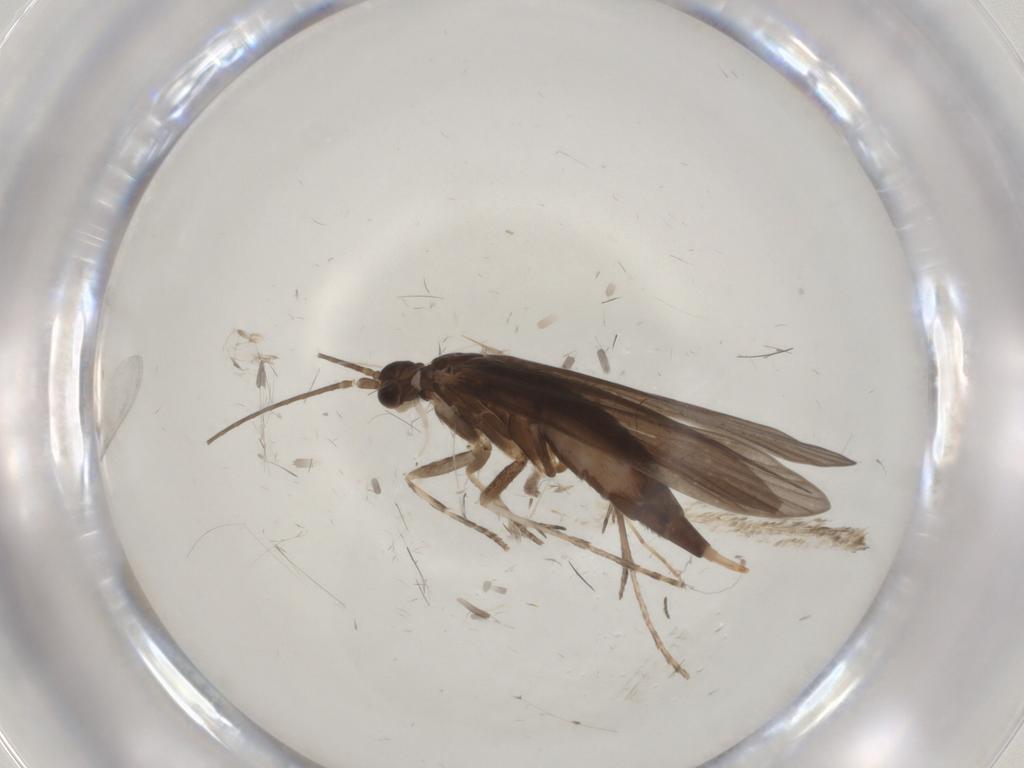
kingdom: Animalia
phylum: Arthropoda
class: Insecta
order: Trichoptera
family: Xiphocentronidae
